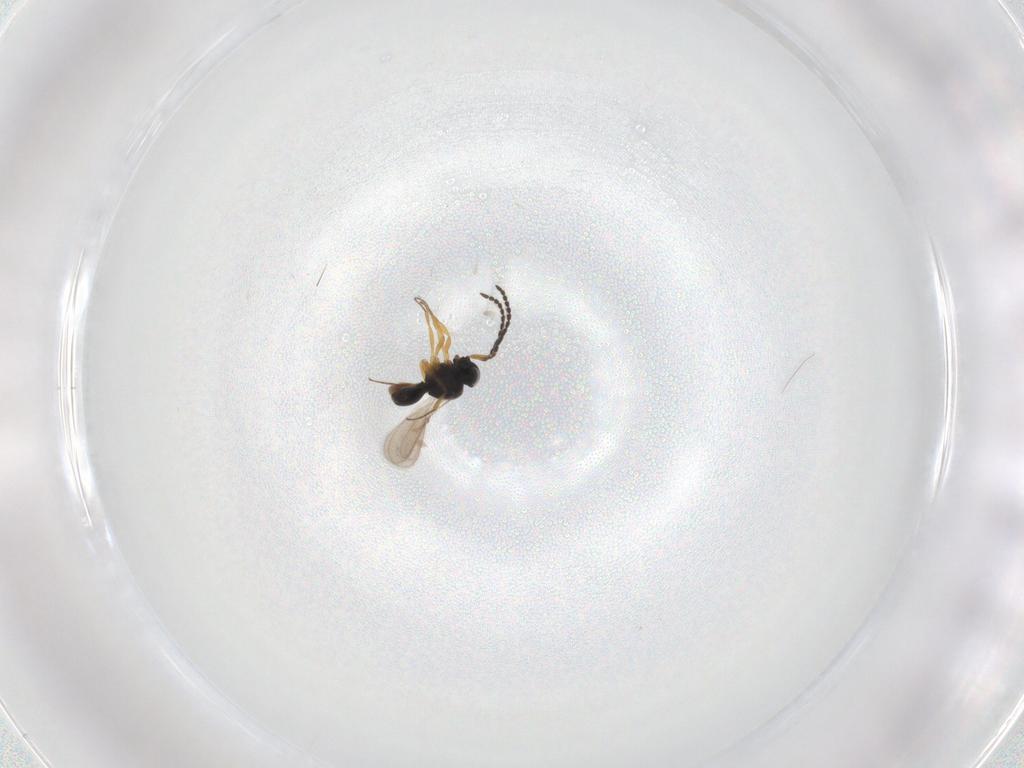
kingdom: Animalia
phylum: Arthropoda
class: Insecta
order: Hymenoptera
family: Scelionidae
